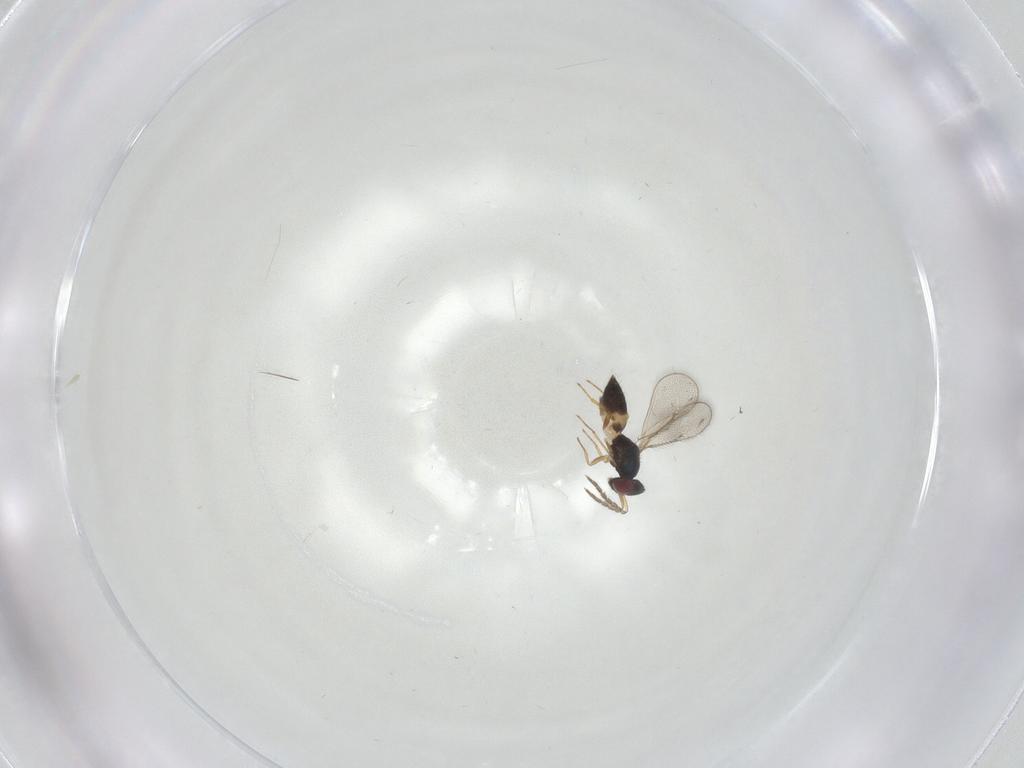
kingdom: Animalia
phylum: Arthropoda
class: Insecta
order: Hymenoptera
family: Eulophidae
